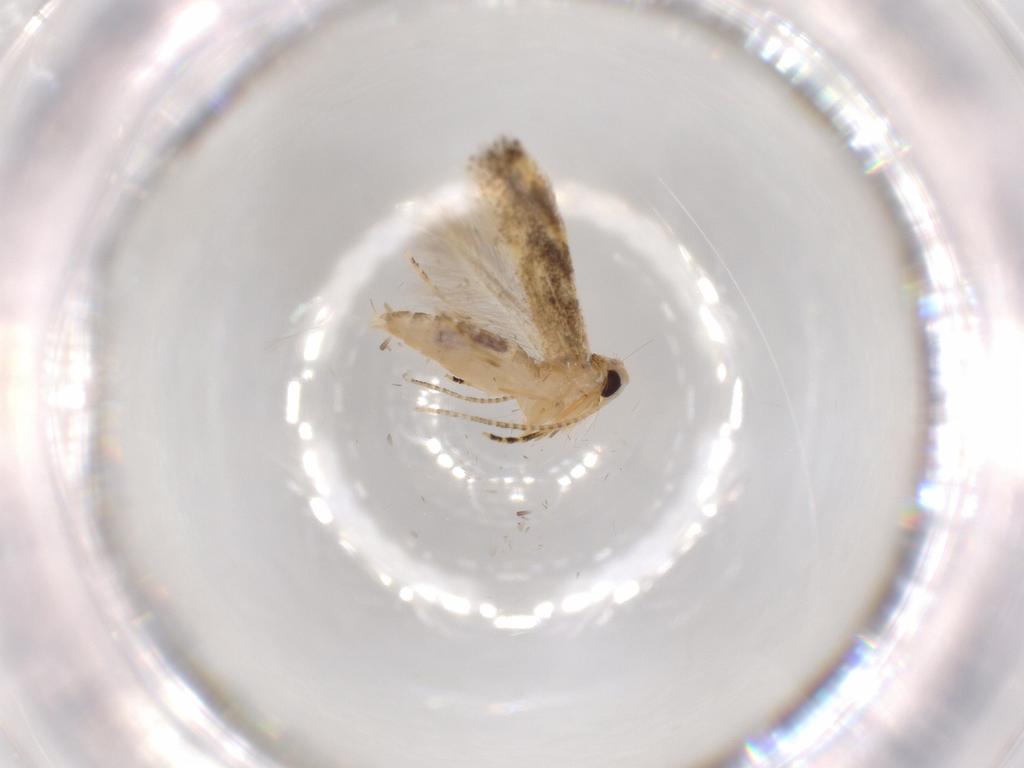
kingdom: Animalia
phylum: Arthropoda
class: Insecta
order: Lepidoptera
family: Bucculatricidae
